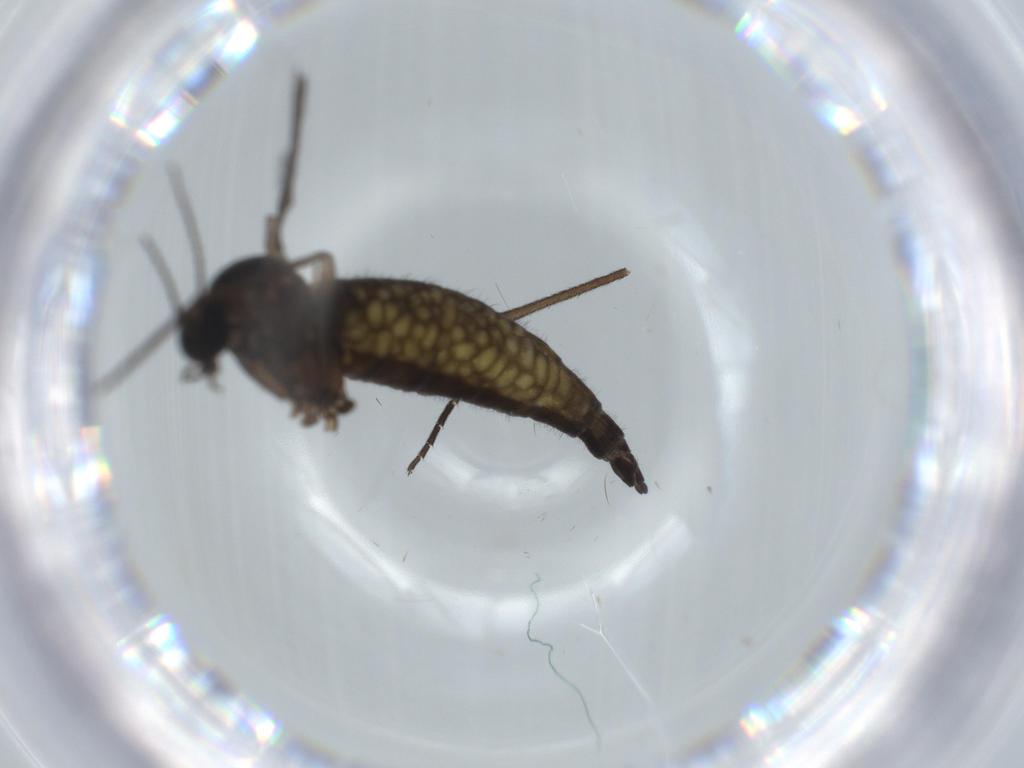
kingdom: Animalia
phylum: Arthropoda
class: Insecta
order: Diptera
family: Sciaridae
